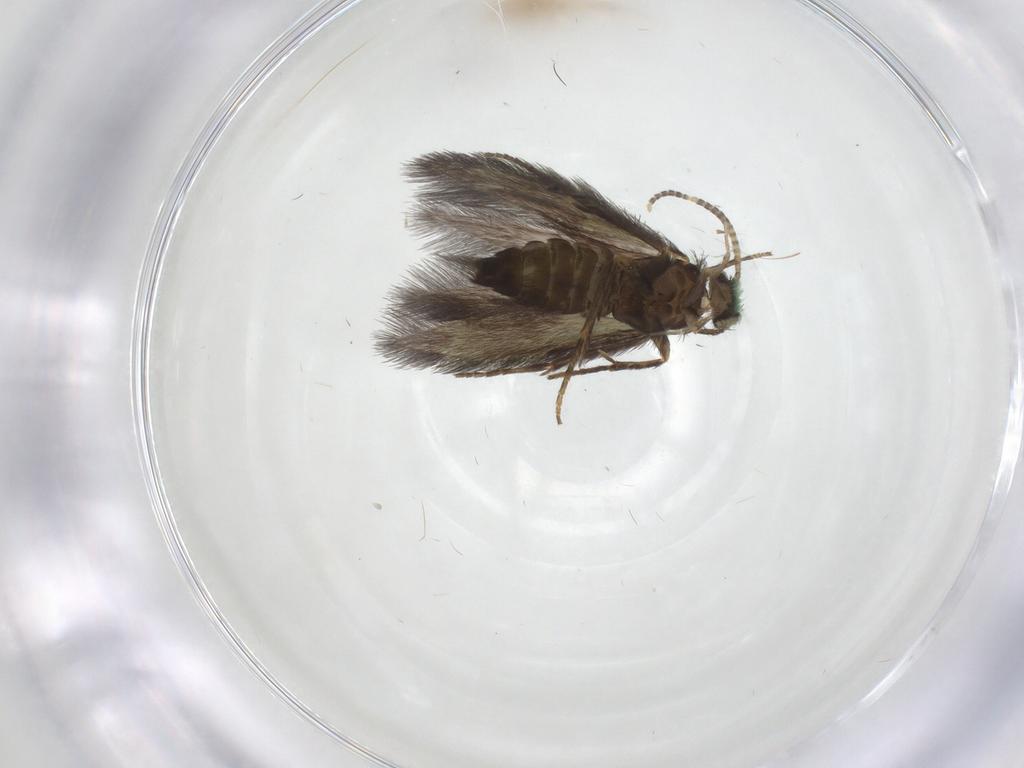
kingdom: Animalia
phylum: Arthropoda
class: Insecta
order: Trichoptera
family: Hydroptilidae
